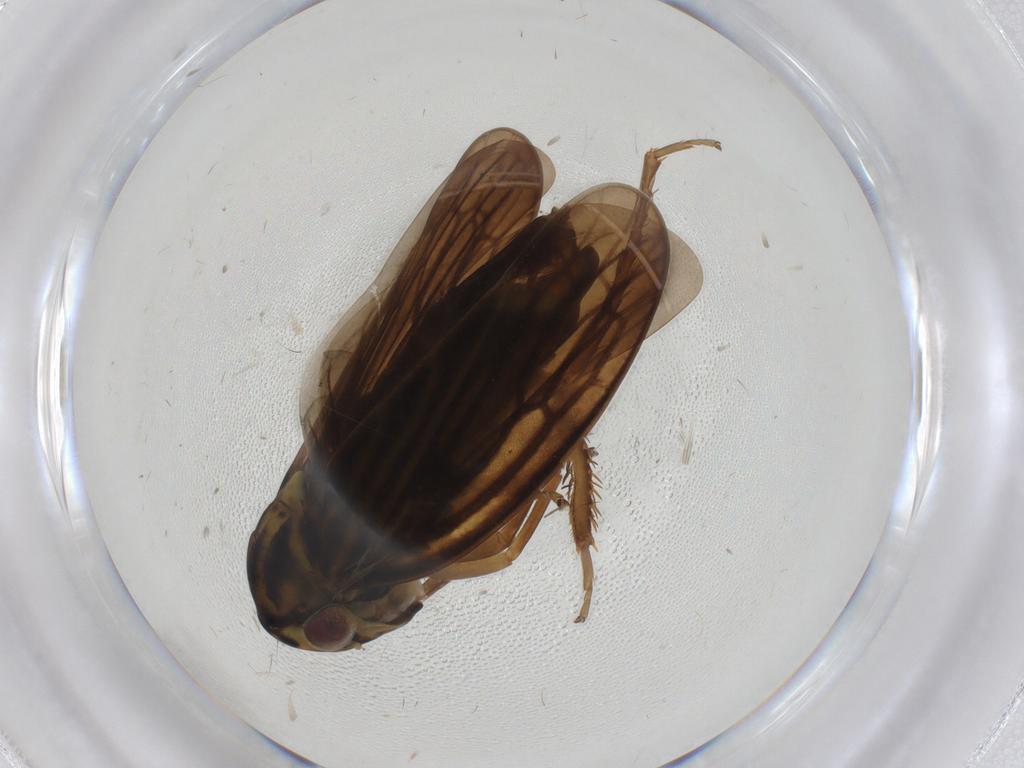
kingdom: Animalia
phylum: Arthropoda
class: Insecta
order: Hemiptera
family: Cicadellidae
